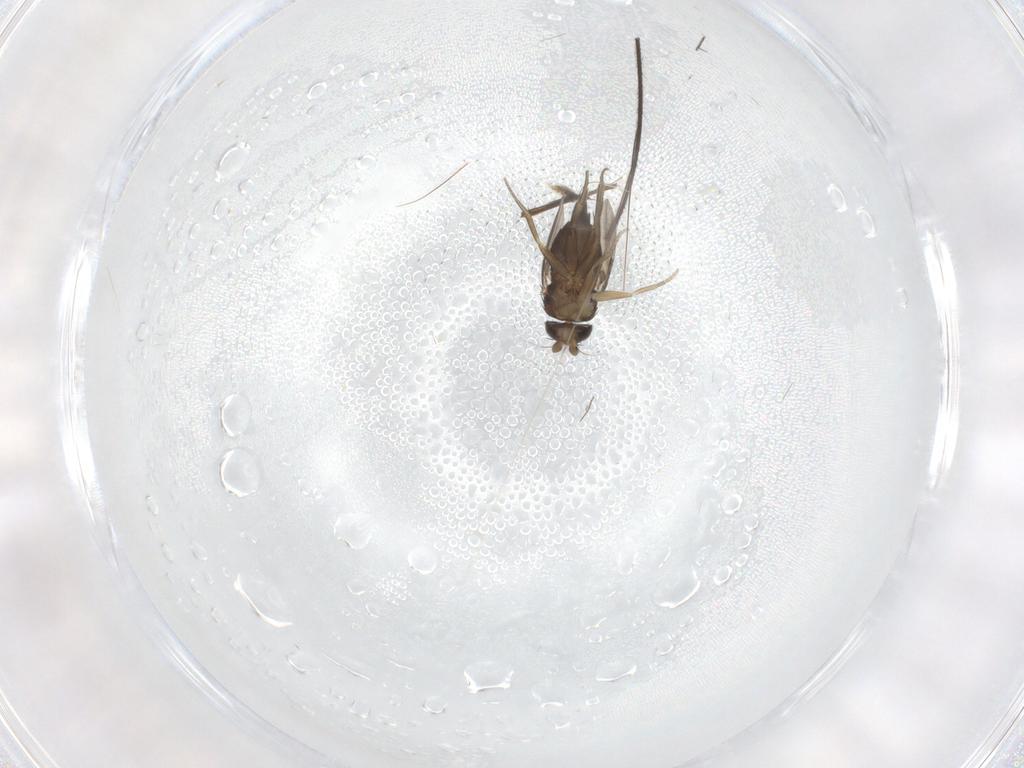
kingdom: Animalia
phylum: Arthropoda
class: Insecta
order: Diptera
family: Phoridae
